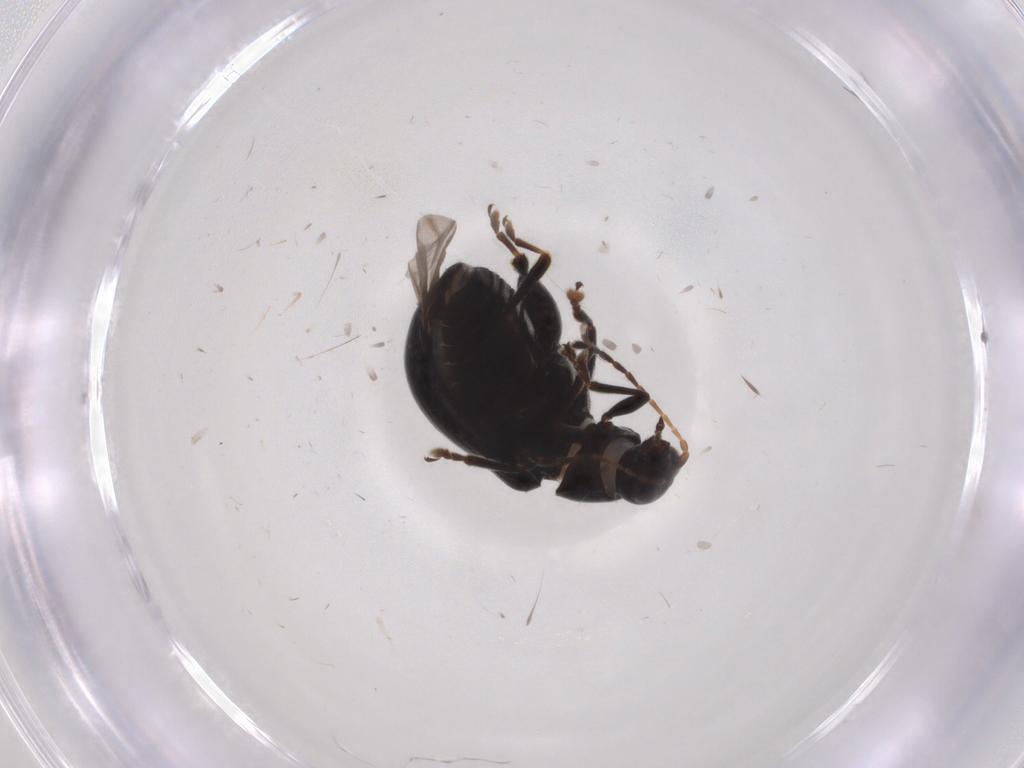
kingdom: Animalia
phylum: Arthropoda
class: Insecta
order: Coleoptera
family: Chrysomelidae
